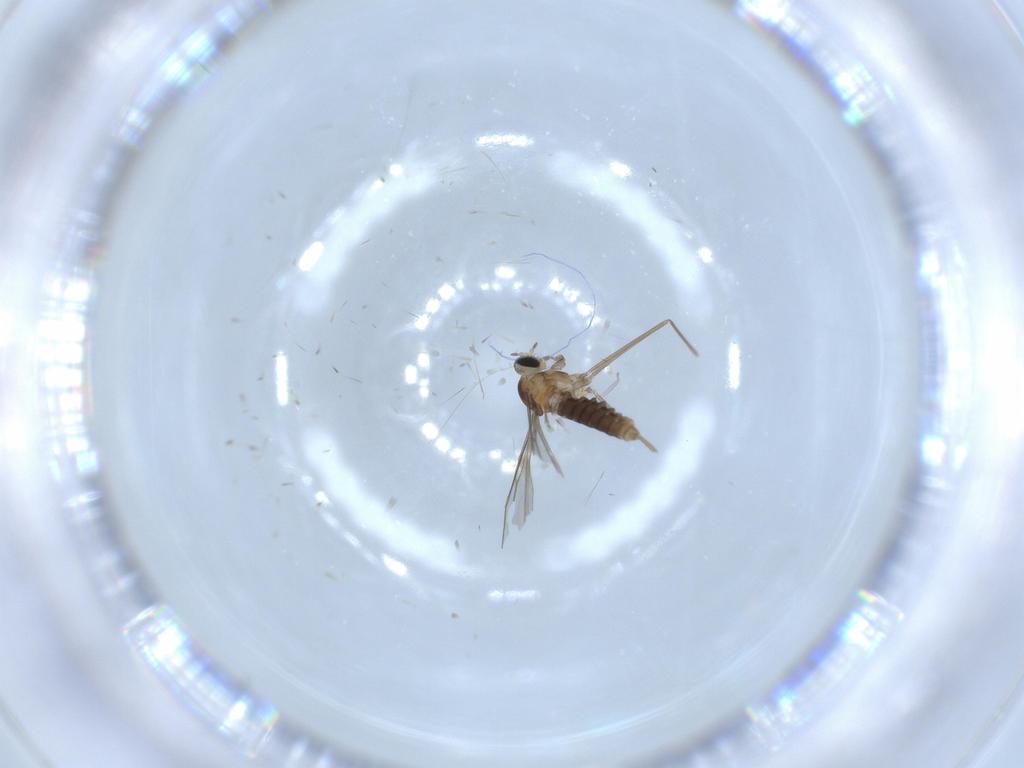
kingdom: Animalia
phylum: Arthropoda
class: Insecta
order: Diptera
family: Cecidomyiidae
